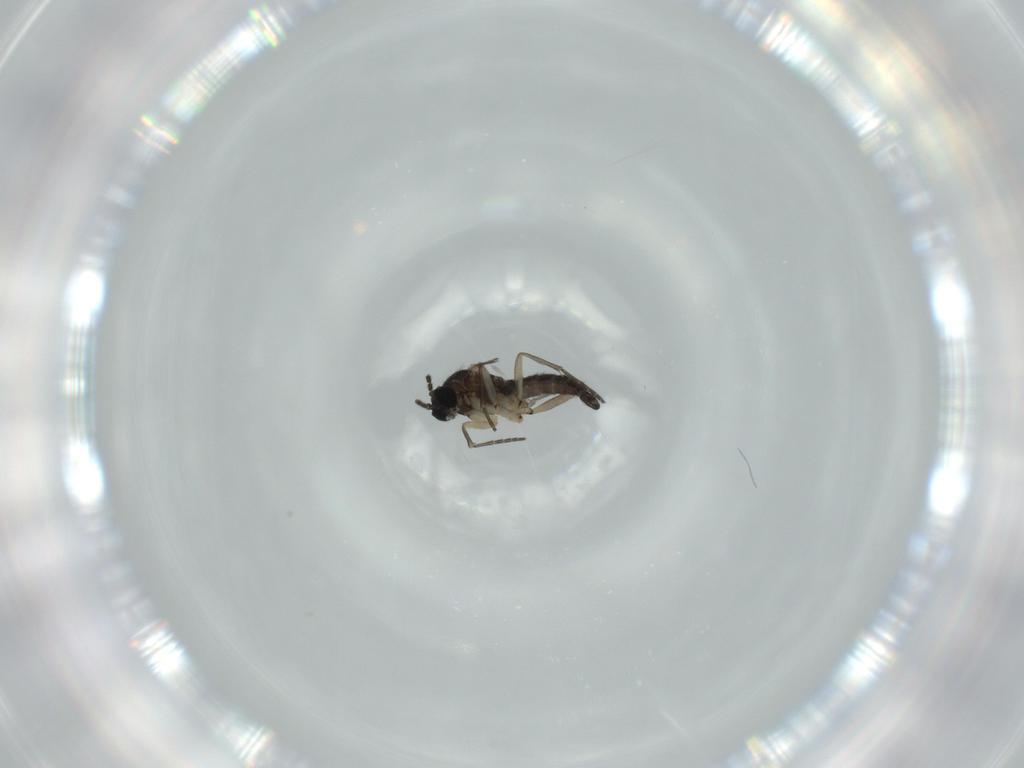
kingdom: Animalia
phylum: Arthropoda
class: Insecta
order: Diptera
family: Sciaridae
